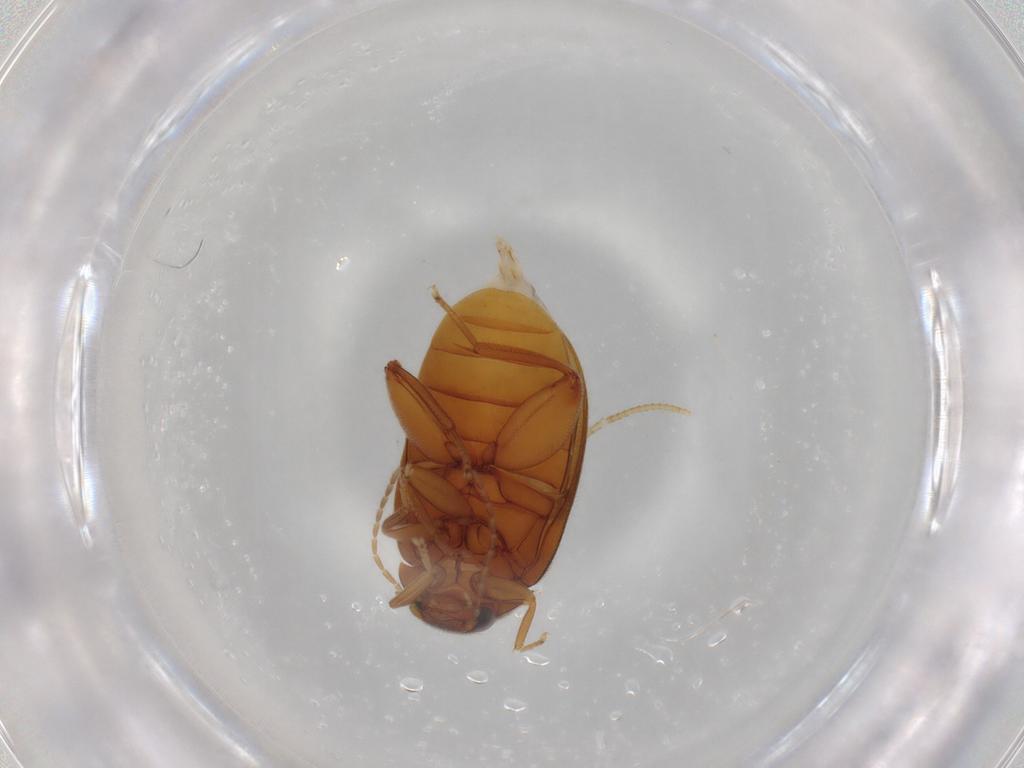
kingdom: Animalia
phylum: Arthropoda
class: Insecta
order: Coleoptera
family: Scirtidae
